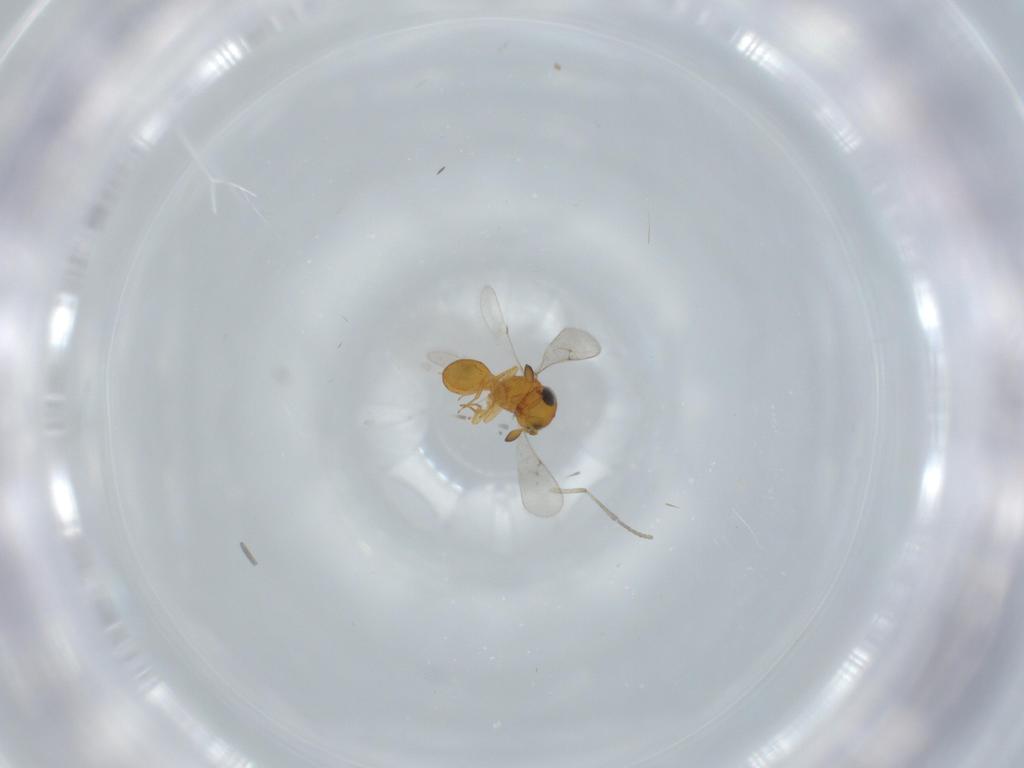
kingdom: Animalia
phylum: Arthropoda
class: Insecta
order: Hymenoptera
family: Scelionidae
